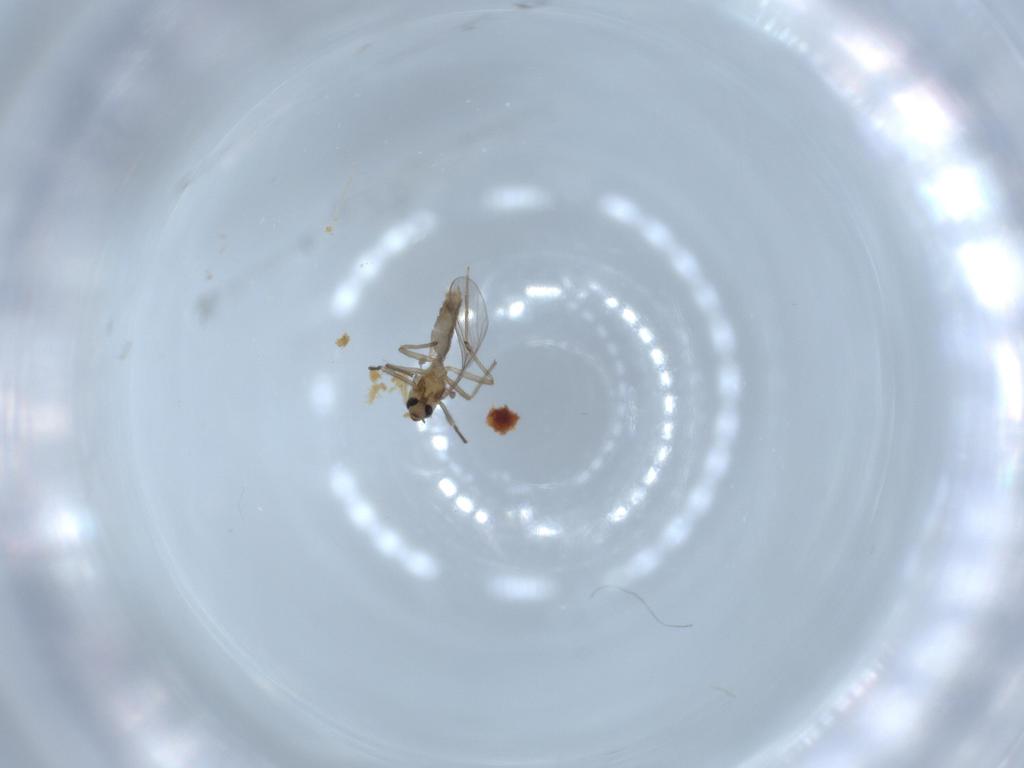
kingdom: Animalia
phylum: Arthropoda
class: Insecta
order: Diptera
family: Chironomidae
